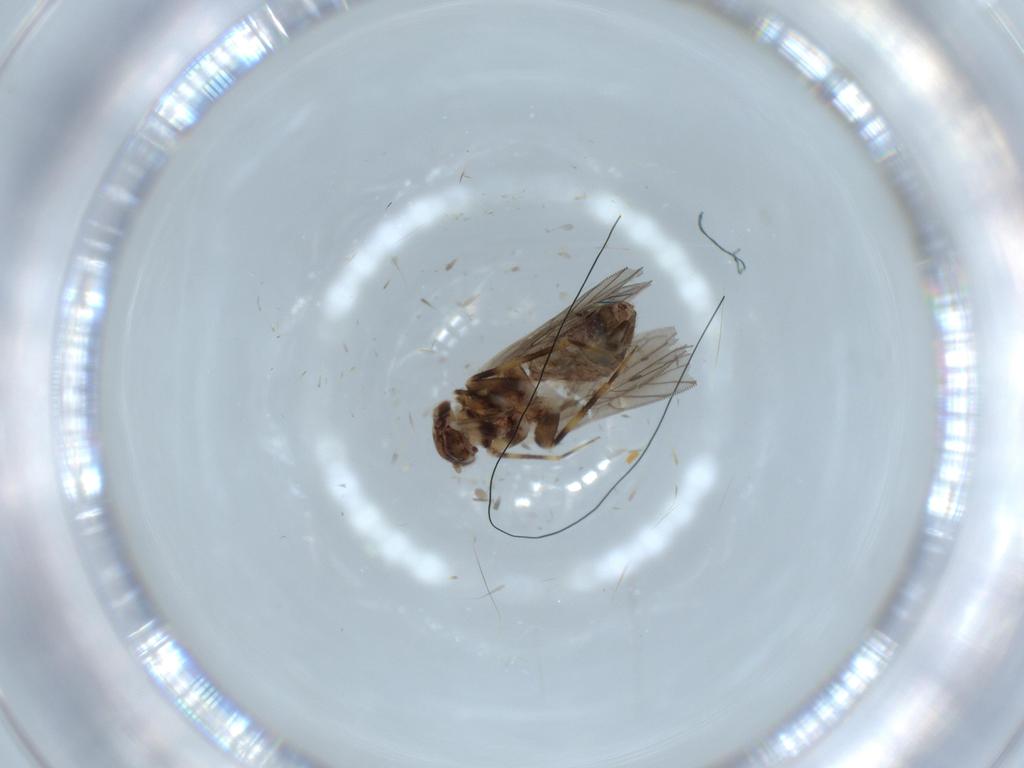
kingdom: Animalia
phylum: Arthropoda
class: Insecta
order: Psocodea
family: Lepidopsocidae
